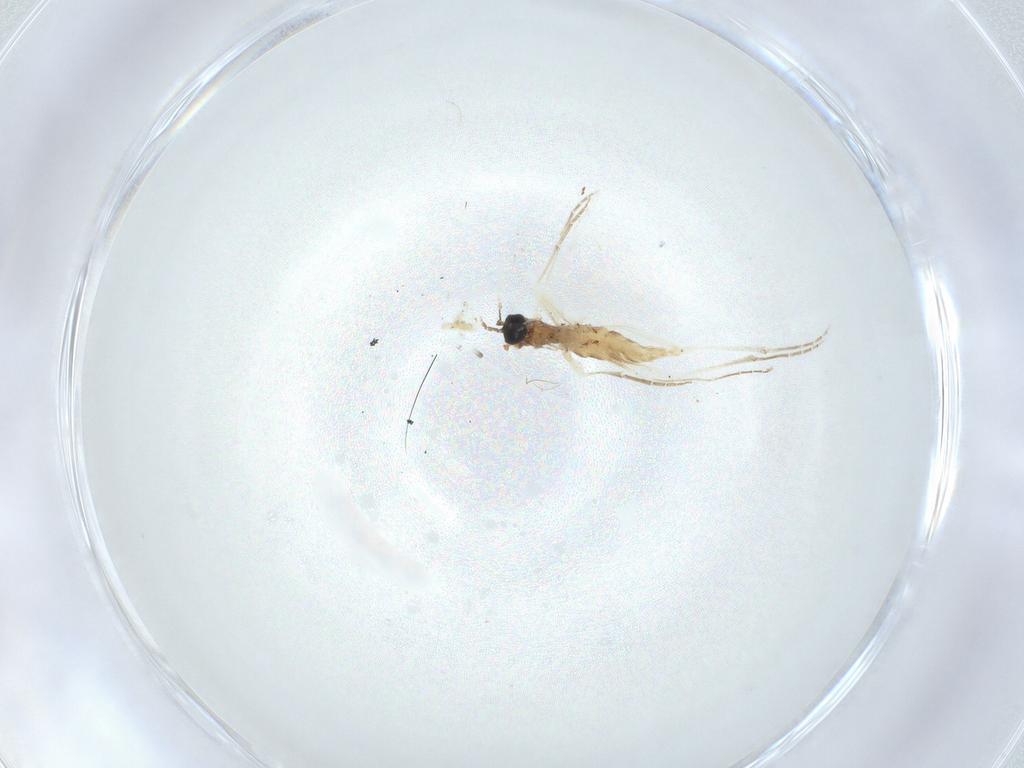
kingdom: Animalia
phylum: Arthropoda
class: Insecta
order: Diptera
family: Sciaridae
